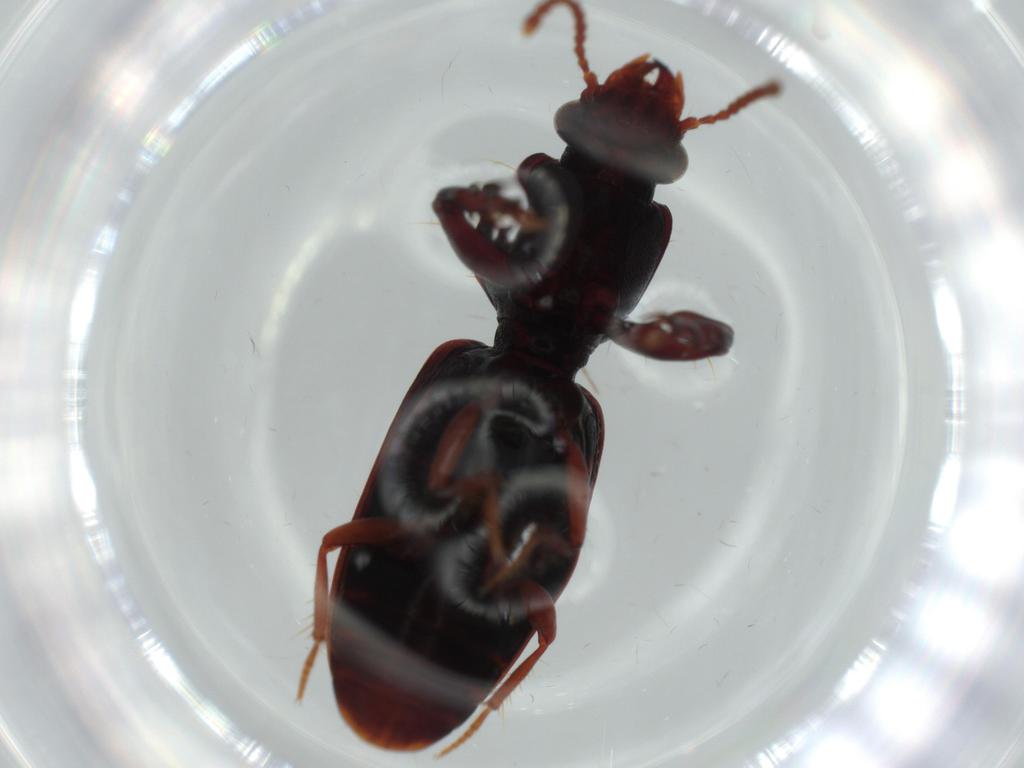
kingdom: Animalia
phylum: Arthropoda
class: Insecta
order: Coleoptera
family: Carabidae
